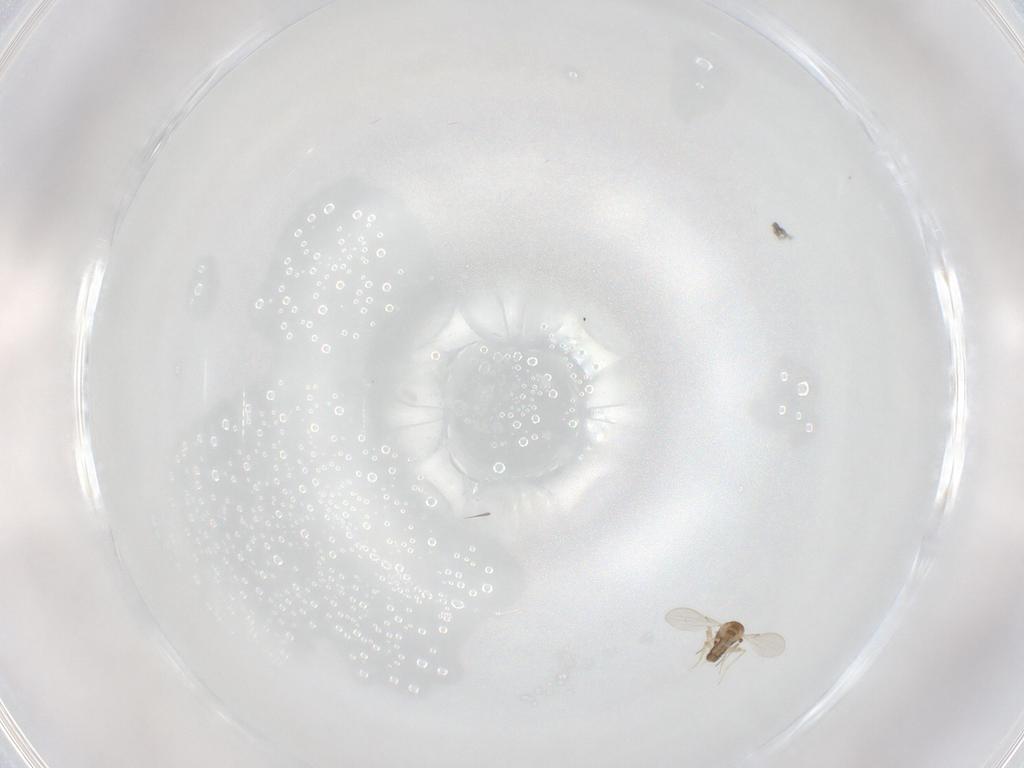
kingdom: Animalia
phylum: Arthropoda
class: Insecta
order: Diptera
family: Ceratopogonidae
